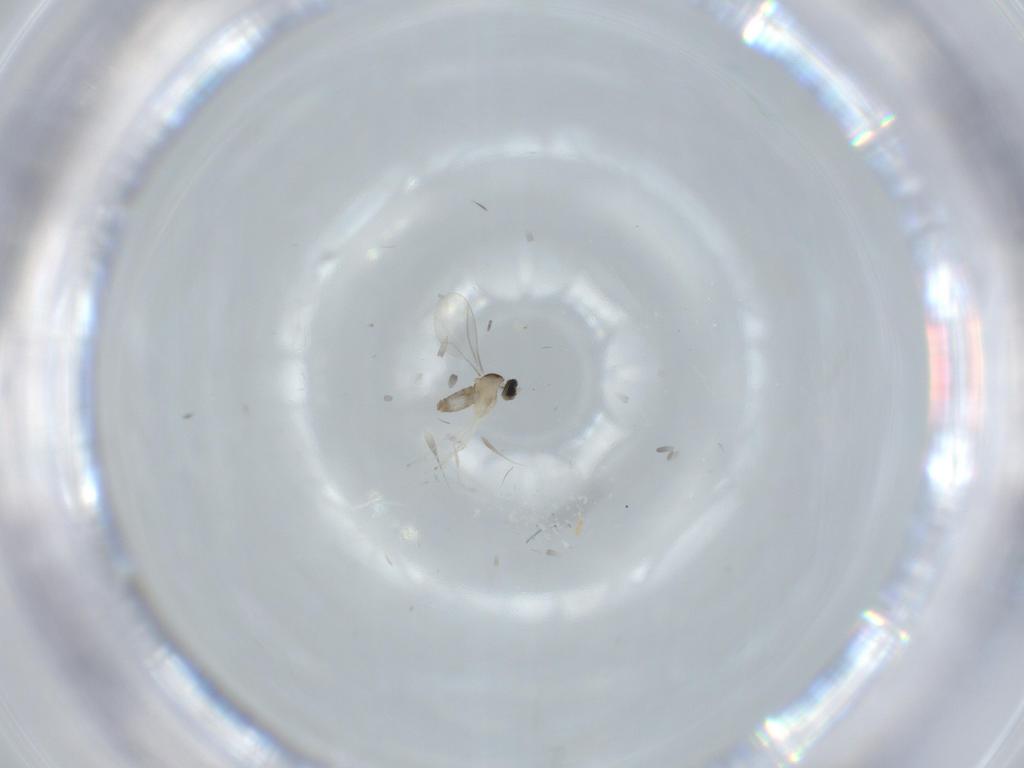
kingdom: Animalia
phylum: Arthropoda
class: Insecta
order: Diptera
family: Cecidomyiidae
